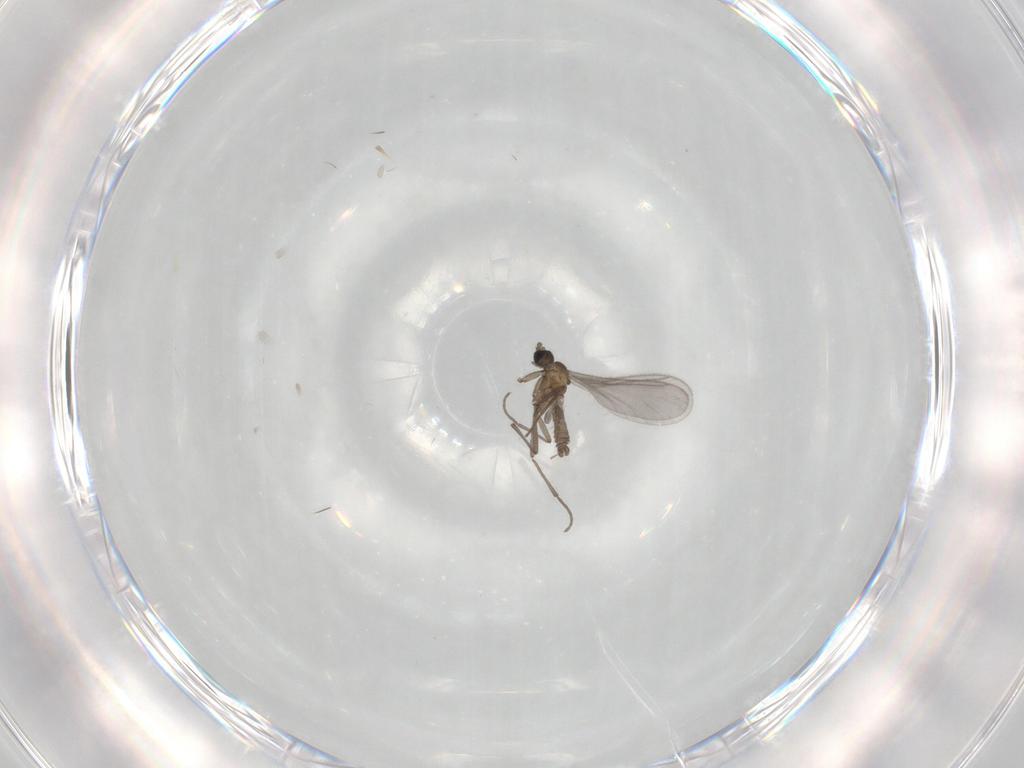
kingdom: Animalia
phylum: Arthropoda
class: Insecta
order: Diptera
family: Sciaridae
